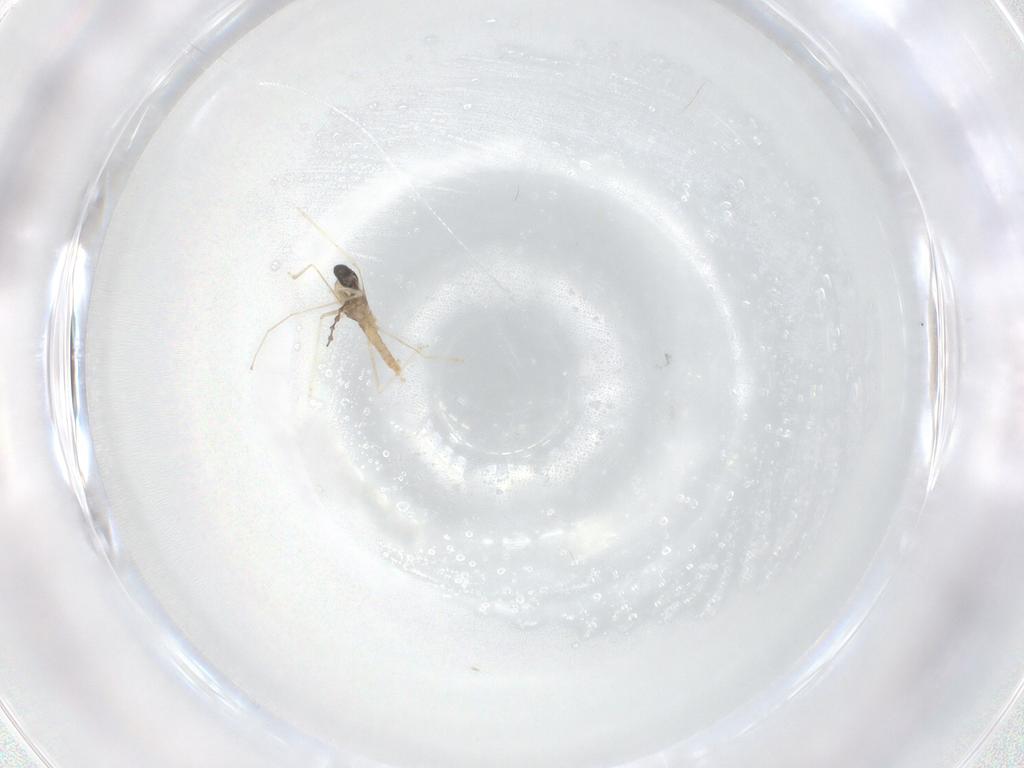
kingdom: Animalia
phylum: Arthropoda
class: Insecta
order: Diptera
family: Cecidomyiidae
